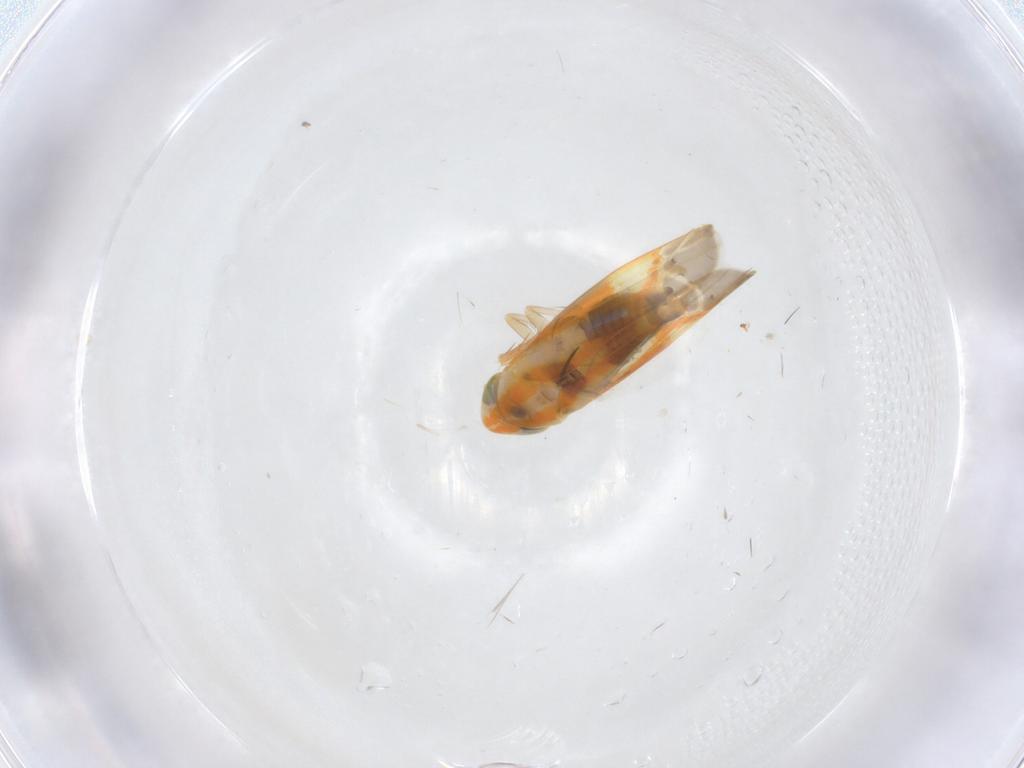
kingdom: Animalia
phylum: Arthropoda
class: Insecta
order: Hemiptera
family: Cicadellidae
